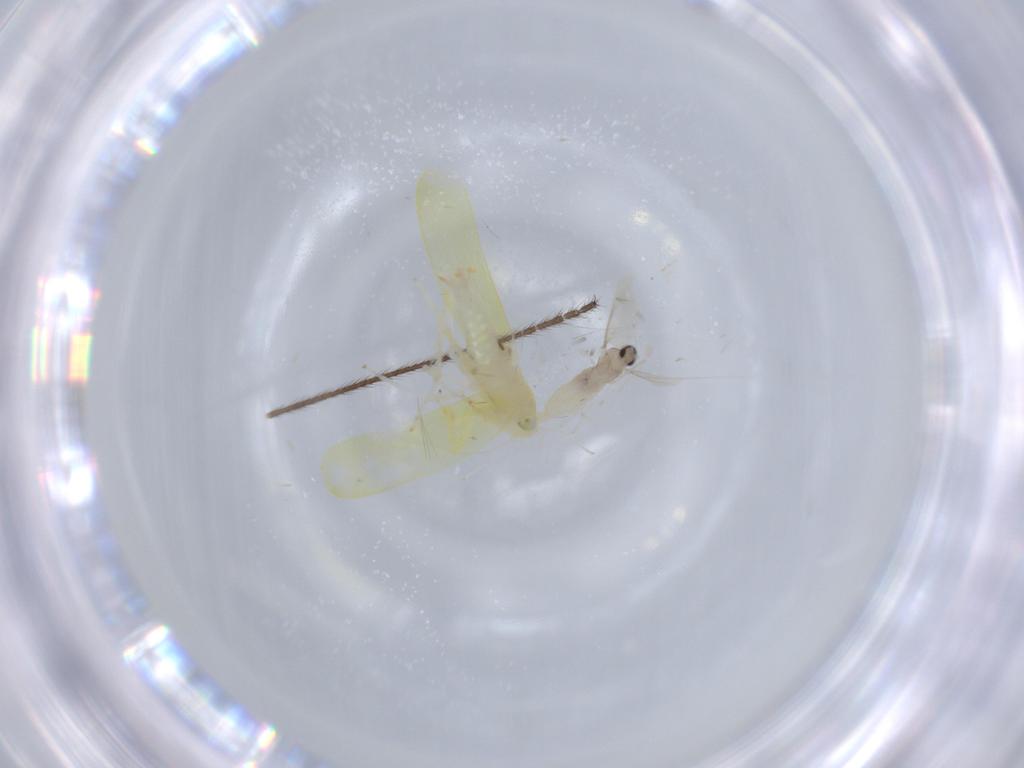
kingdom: Animalia
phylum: Arthropoda
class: Insecta
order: Hemiptera
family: Cicadellidae
